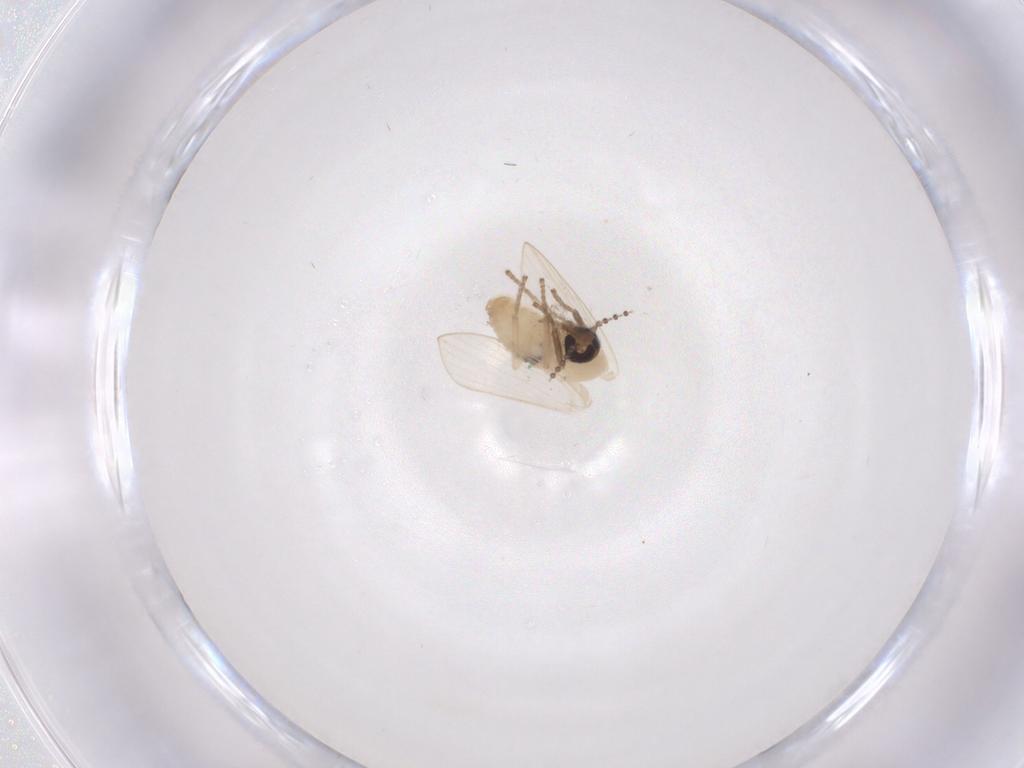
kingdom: Animalia
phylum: Arthropoda
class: Insecta
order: Diptera
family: Psychodidae
